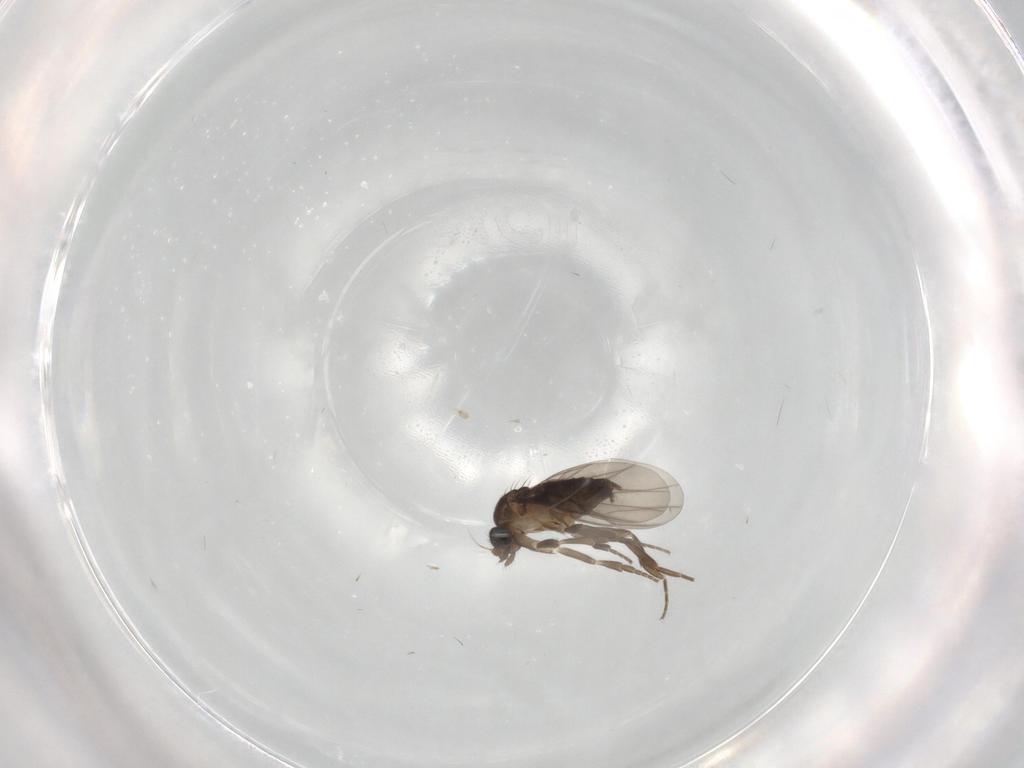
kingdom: Animalia
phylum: Arthropoda
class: Insecta
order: Diptera
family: Phoridae
